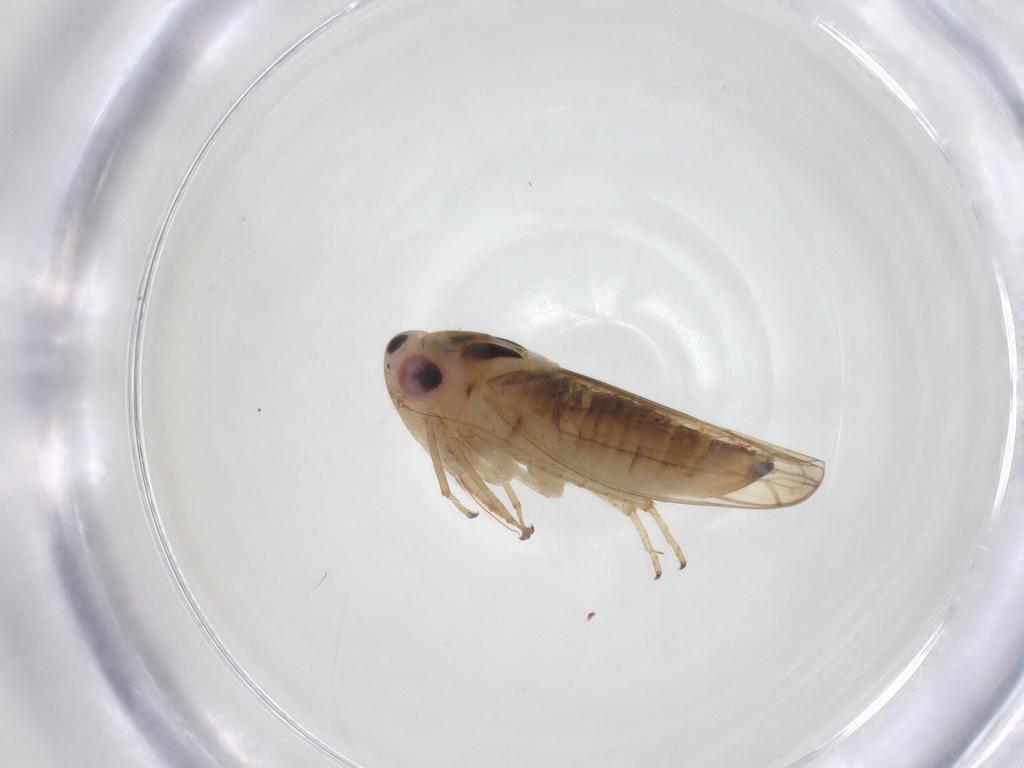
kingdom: Animalia
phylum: Arthropoda
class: Insecta
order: Hemiptera
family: Cicadellidae
